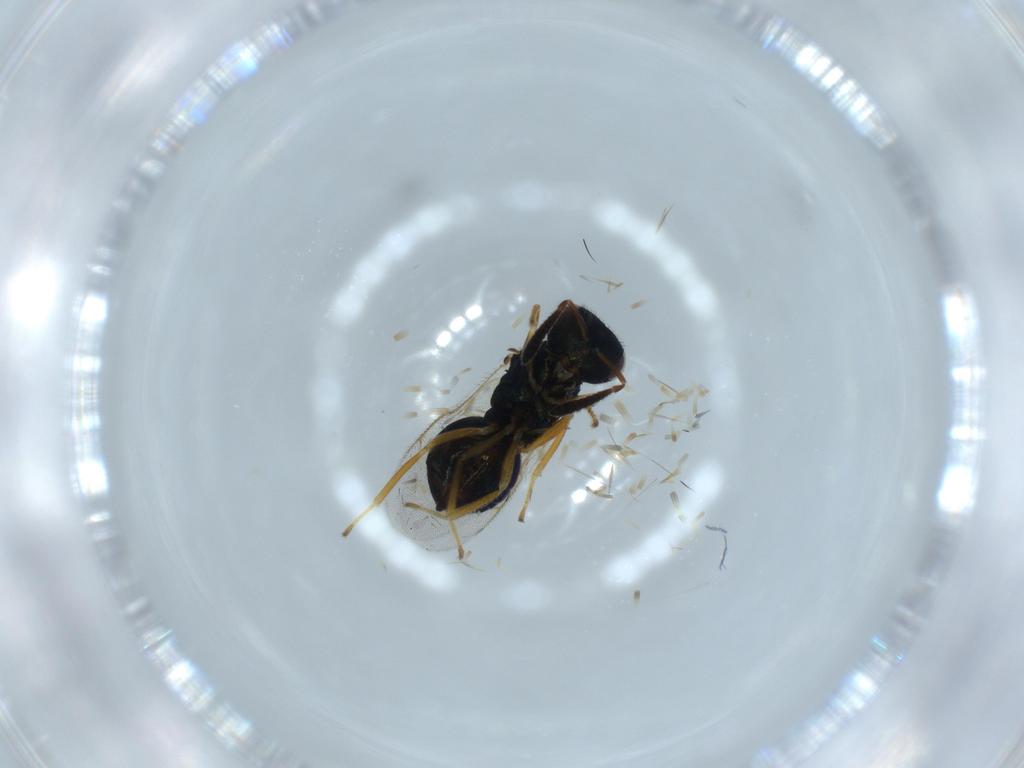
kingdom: Animalia
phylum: Arthropoda
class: Insecta
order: Hymenoptera
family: Pteromalidae
